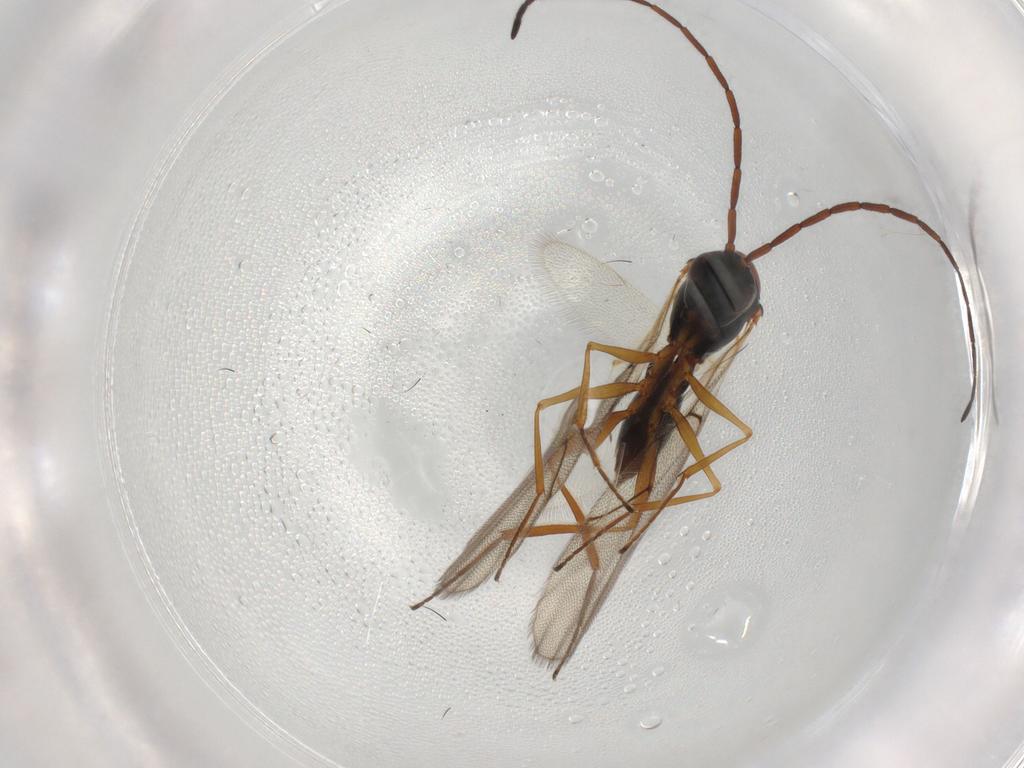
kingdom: Animalia
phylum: Arthropoda
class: Insecta
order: Hymenoptera
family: Figitidae
